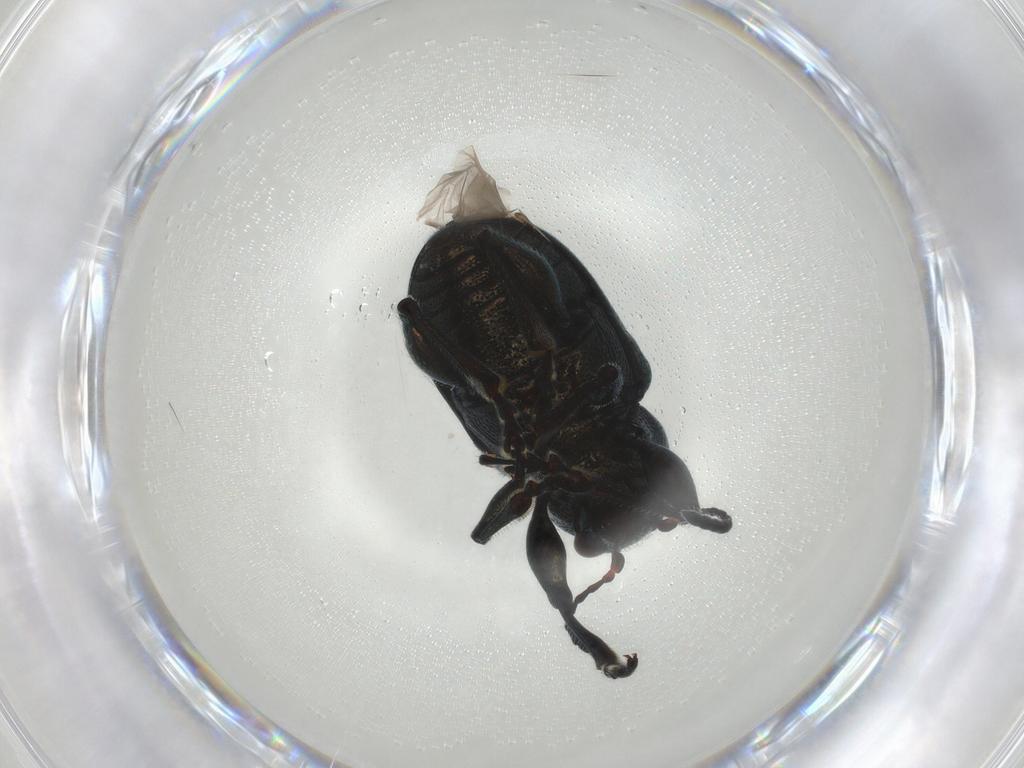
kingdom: Animalia
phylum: Arthropoda
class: Insecta
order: Coleoptera
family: Chrysomelidae
